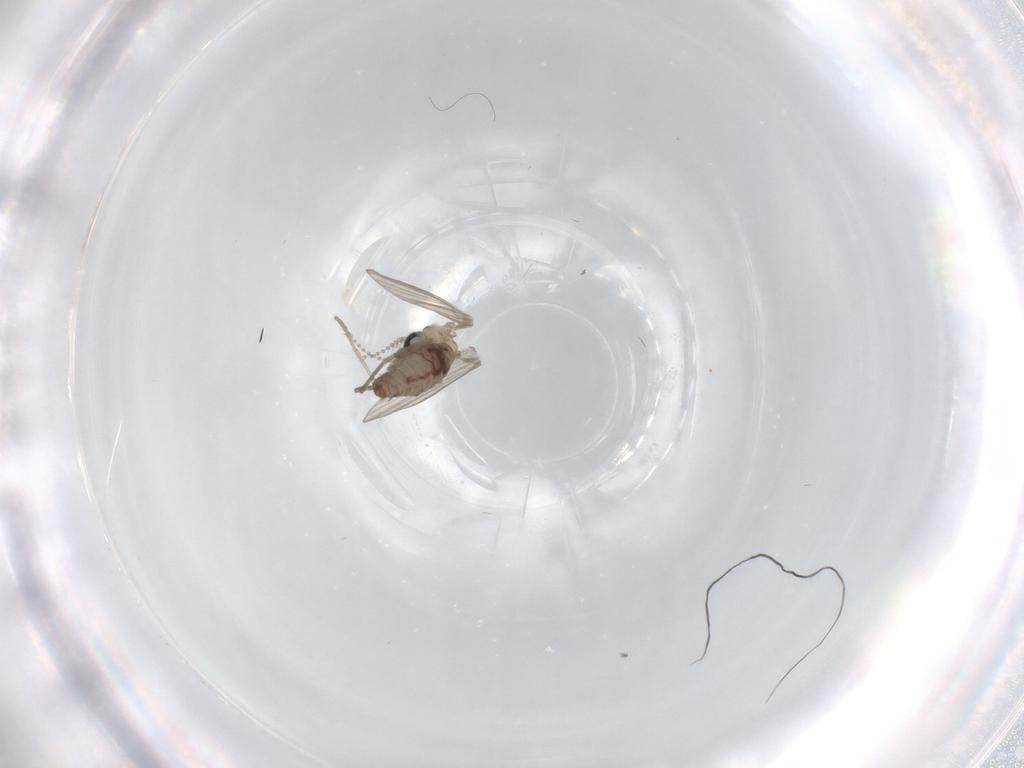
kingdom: Animalia
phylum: Arthropoda
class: Insecta
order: Diptera
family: Psychodidae
